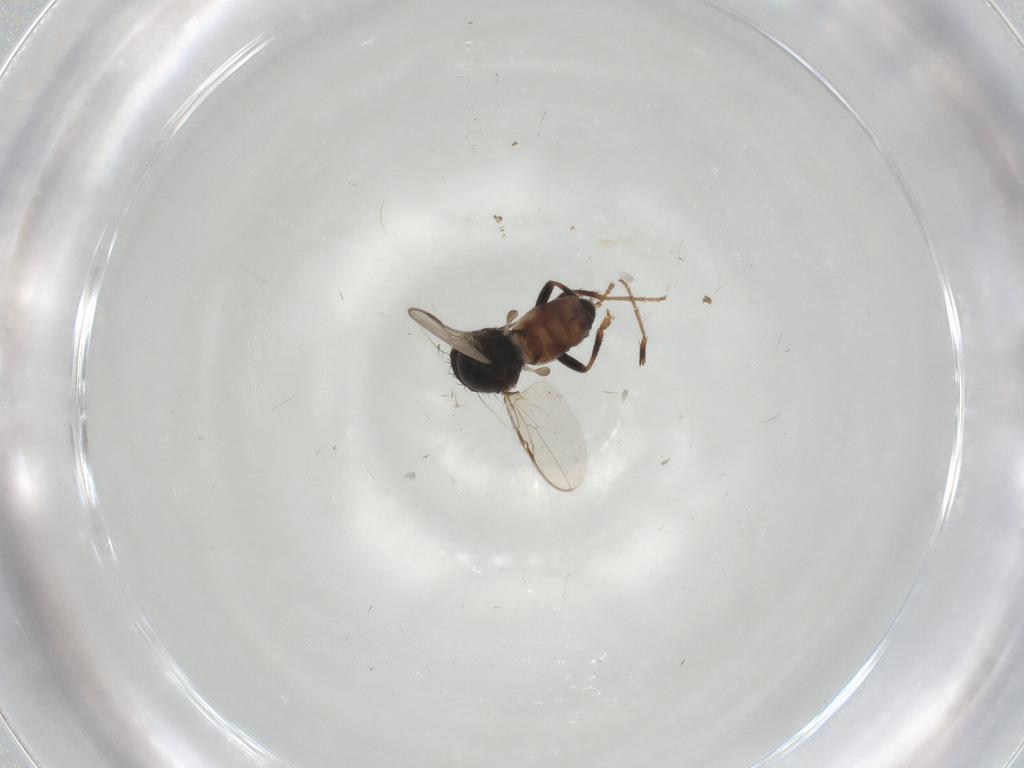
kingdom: Animalia
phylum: Arthropoda
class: Insecta
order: Diptera
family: Sphaeroceridae
